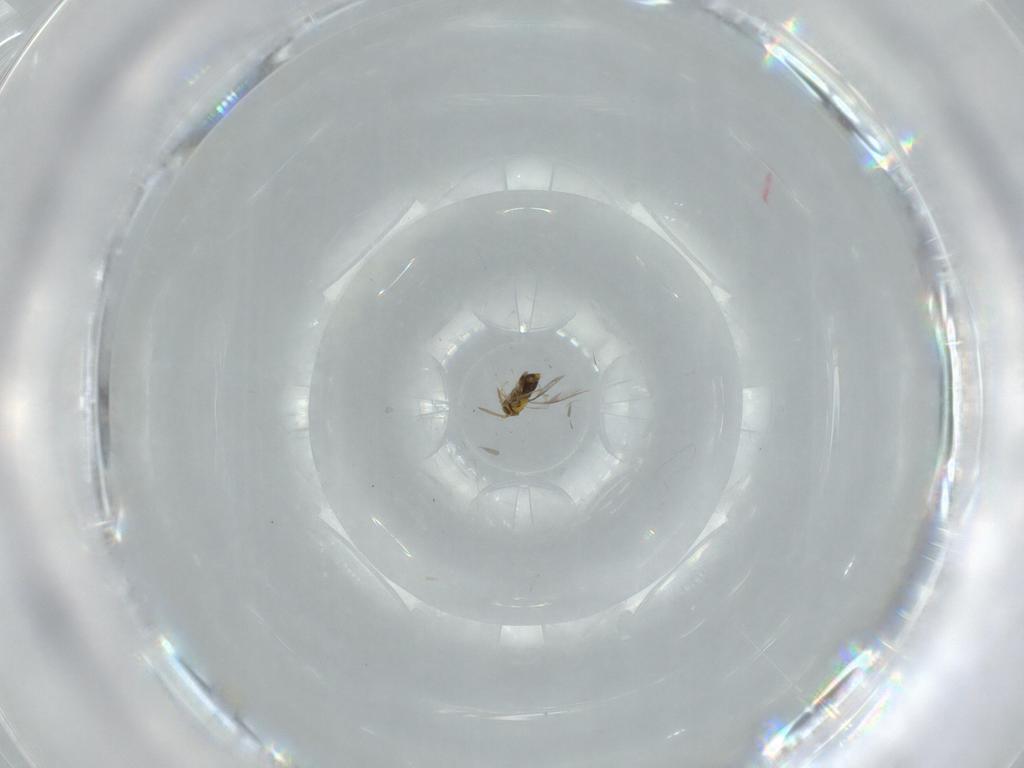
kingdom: Animalia
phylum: Arthropoda
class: Insecta
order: Hymenoptera
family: Aphelinidae
